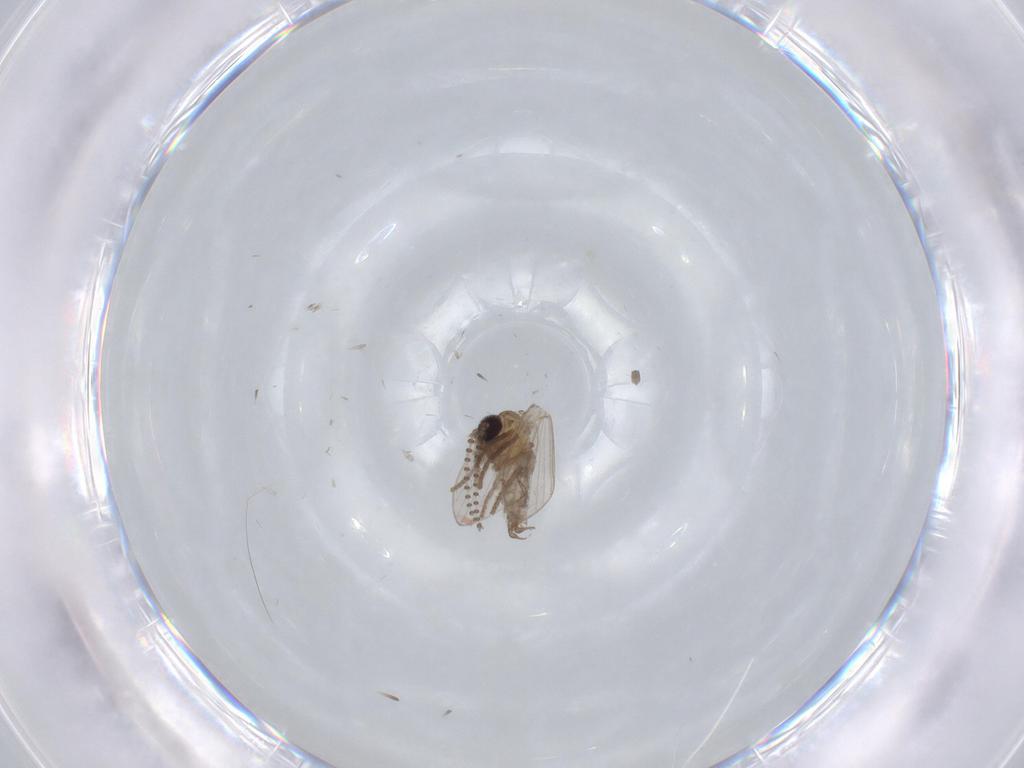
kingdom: Animalia
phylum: Arthropoda
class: Insecta
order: Diptera
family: Psychodidae
